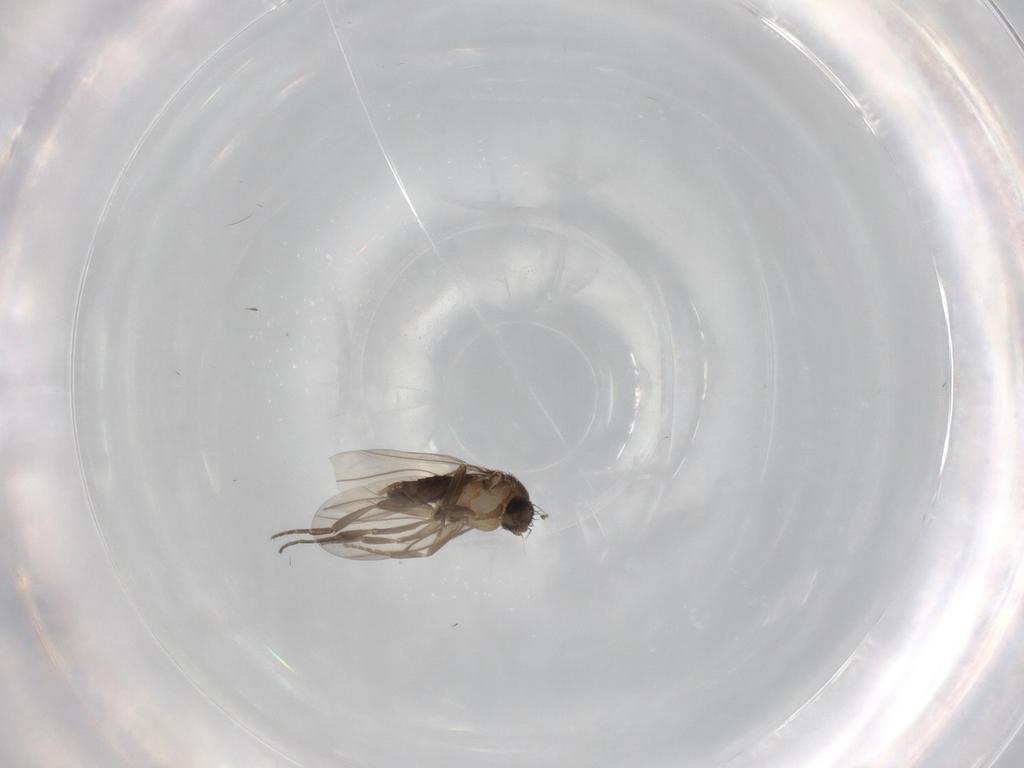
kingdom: Animalia
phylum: Arthropoda
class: Insecta
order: Diptera
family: Phoridae
